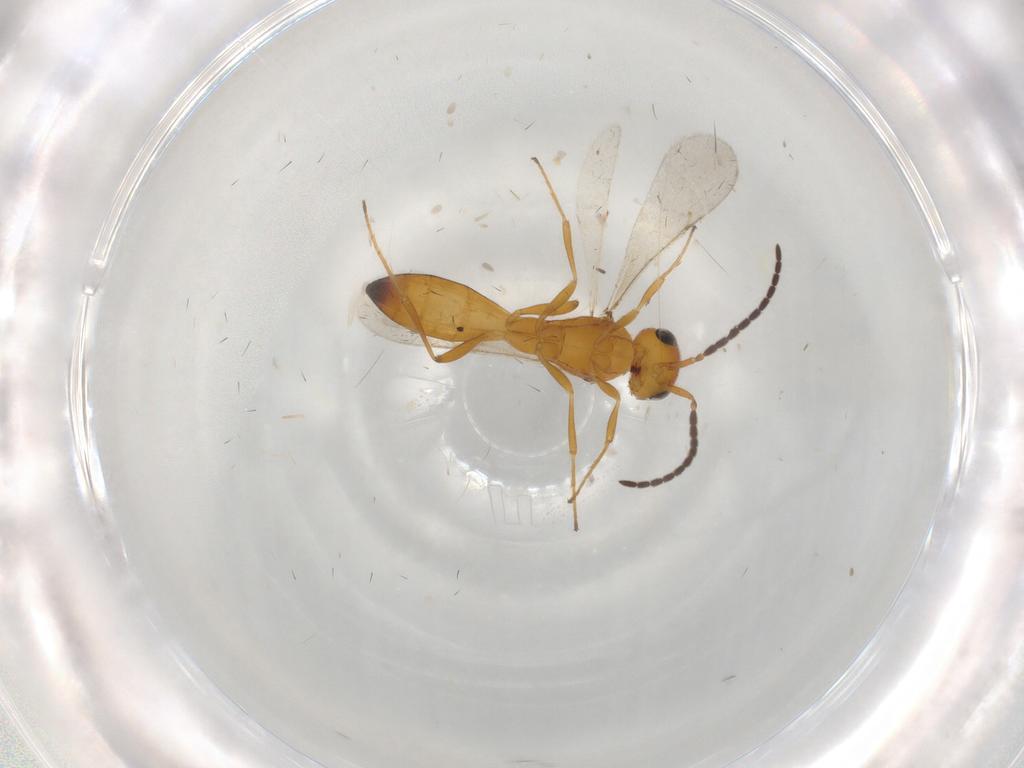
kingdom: Animalia
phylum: Arthropoda
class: Insecta
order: Hymenoptera
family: Scelionidae
